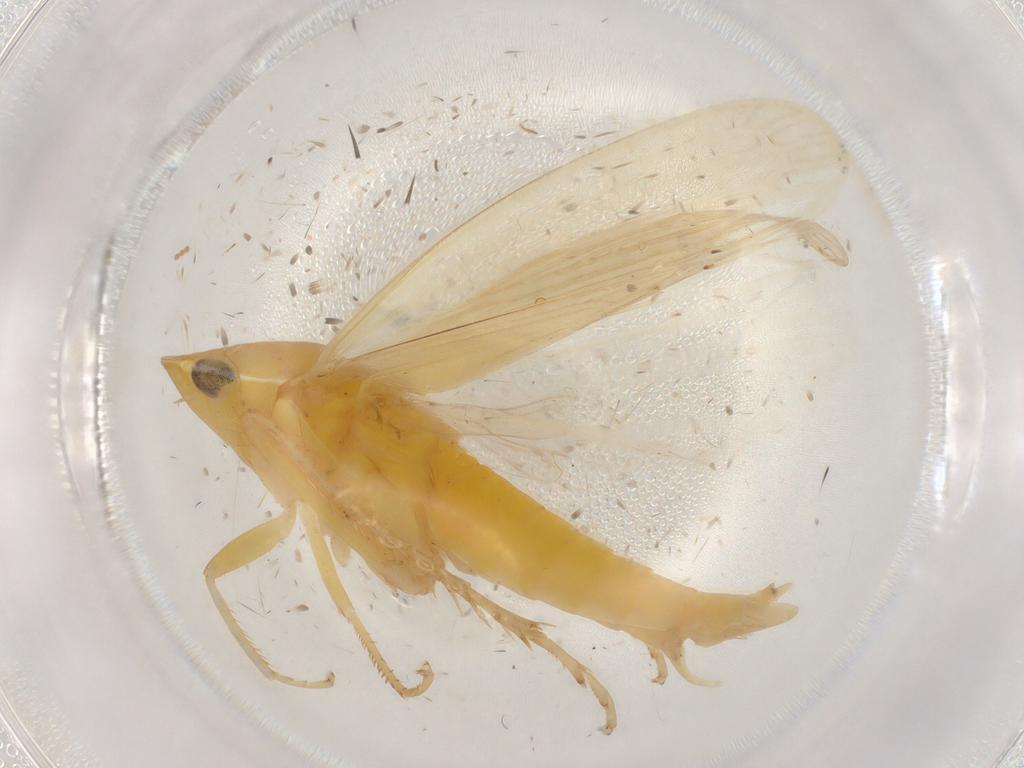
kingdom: Animalia
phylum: Arthropoda
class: Insecta
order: Hemiptera
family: Cicadellidae
